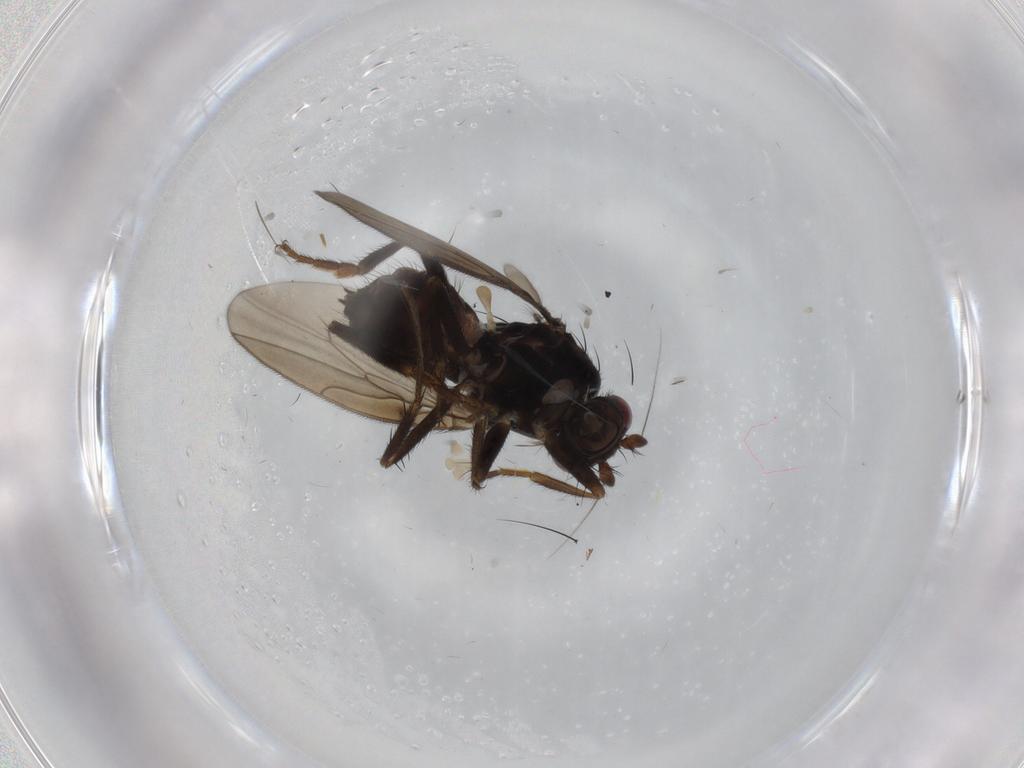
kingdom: Animalia
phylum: Arthropoda
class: Insecta
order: Diptera
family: Sphaeroceridae
